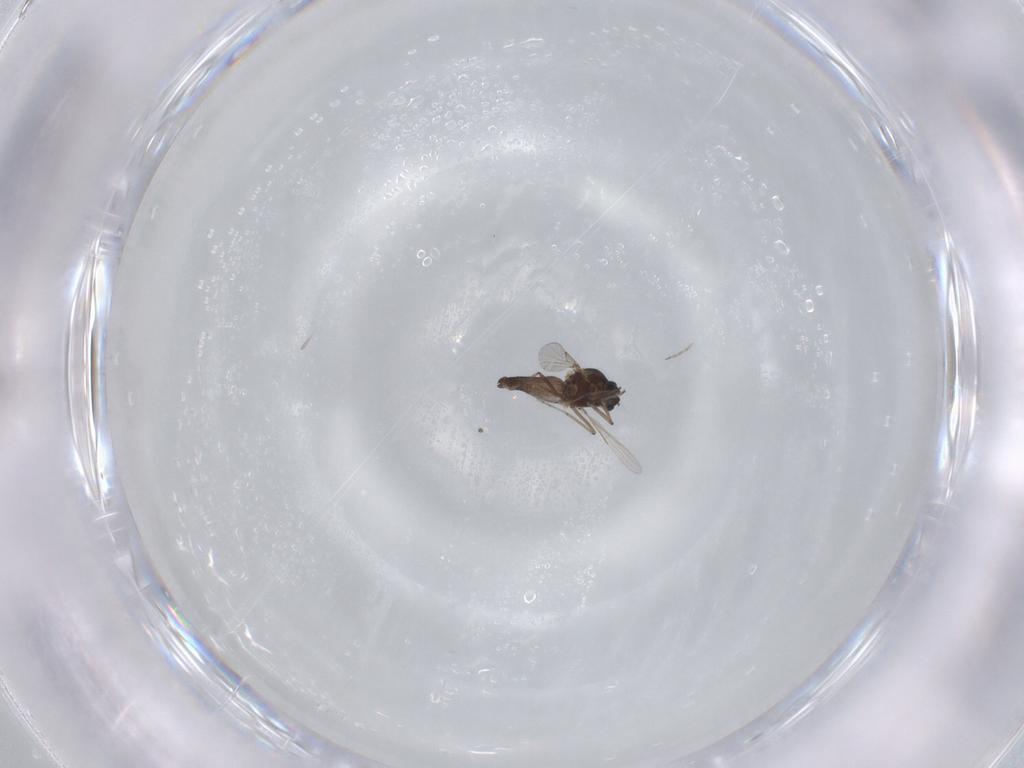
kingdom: Animalia
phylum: Arthropoda
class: Insecta
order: Diptera
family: Ceratopogonidae
